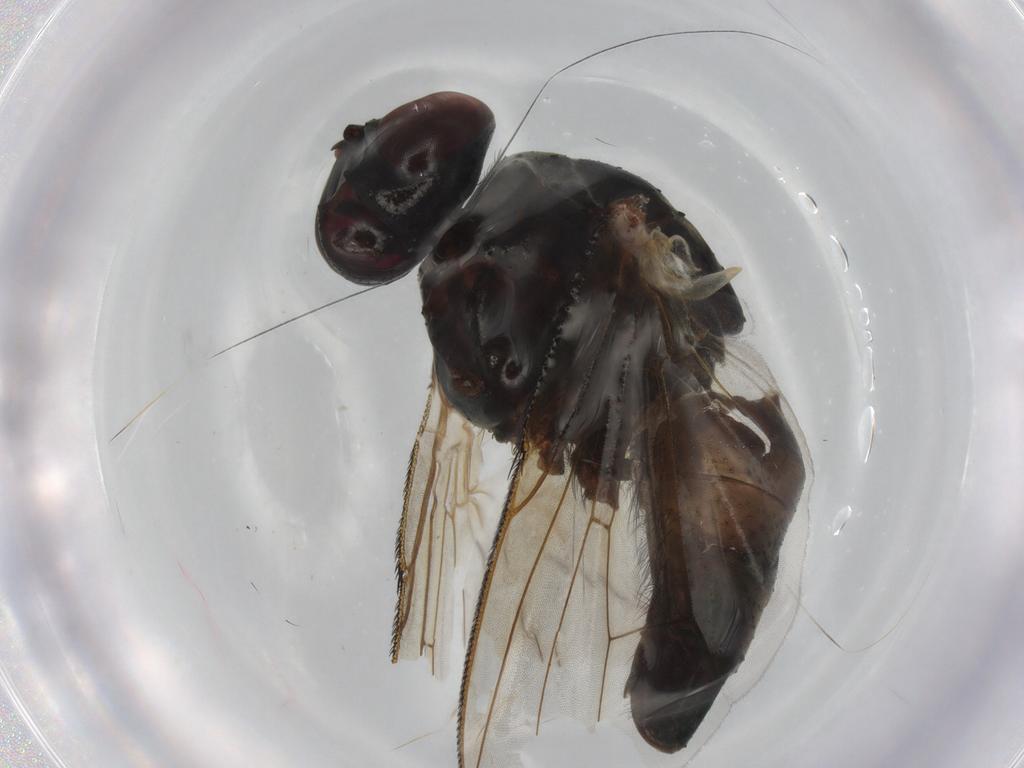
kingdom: Animalia
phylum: Arthropoda
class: Insecta
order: Diptera
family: Muscidae
